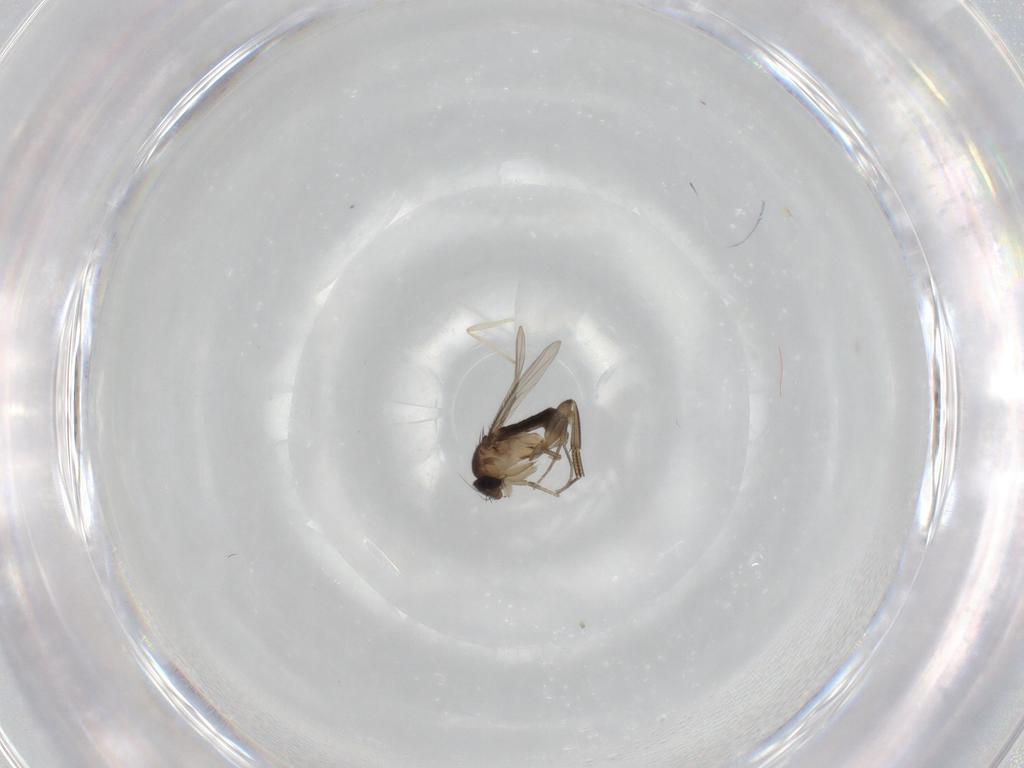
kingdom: Animalia
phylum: Arthropoda
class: Insecta
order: Diptera
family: Phoridae
